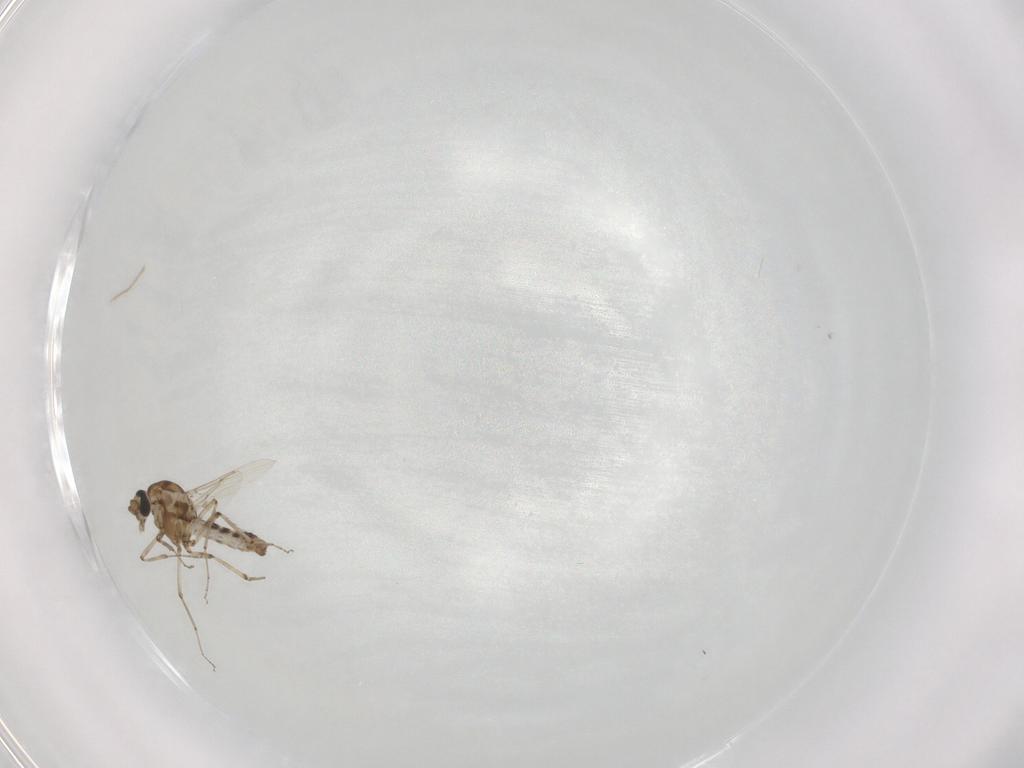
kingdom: Animalia
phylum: Arthropoda
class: Insecta
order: Diptera
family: Ceratopogonidae
